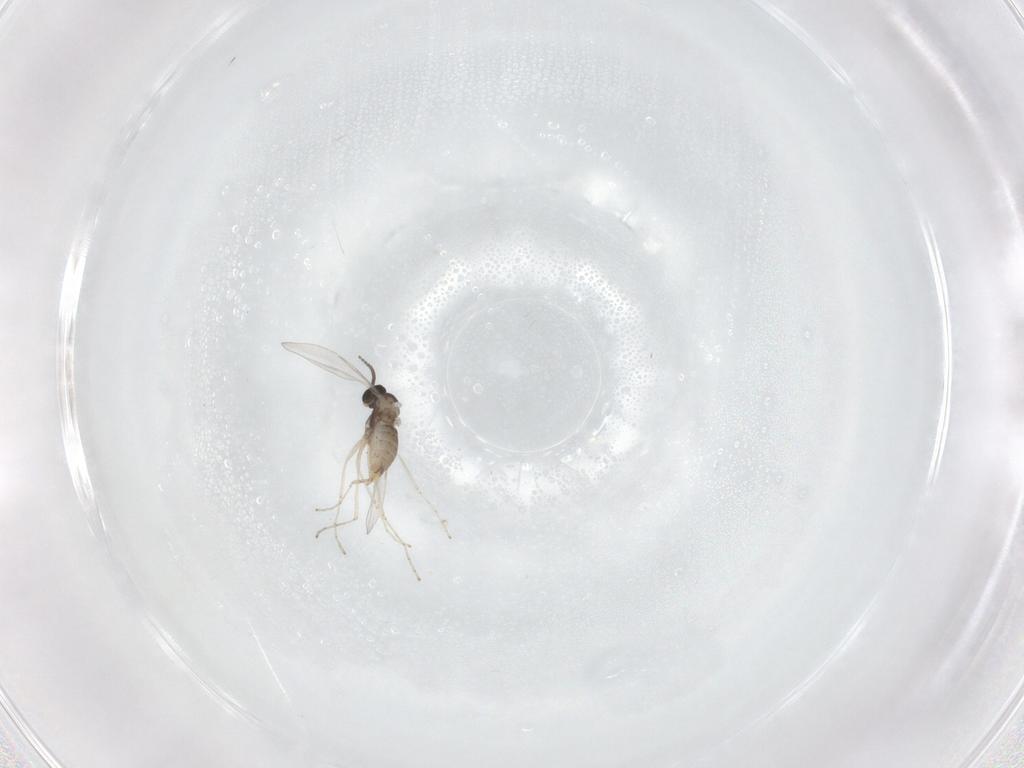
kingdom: Animalia
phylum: Arthropoda
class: Insecta
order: Diptera
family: Cecidomyiidae
